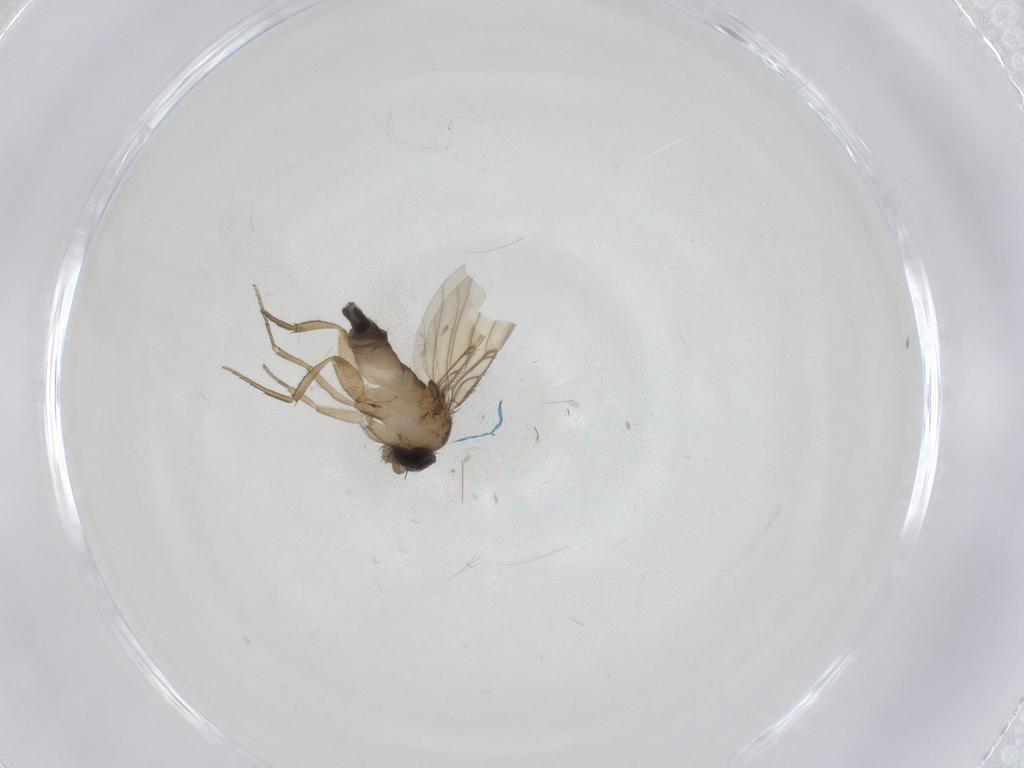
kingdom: Animalia
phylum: Arthropoda
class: Insecta
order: Diptera
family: Phoridae
